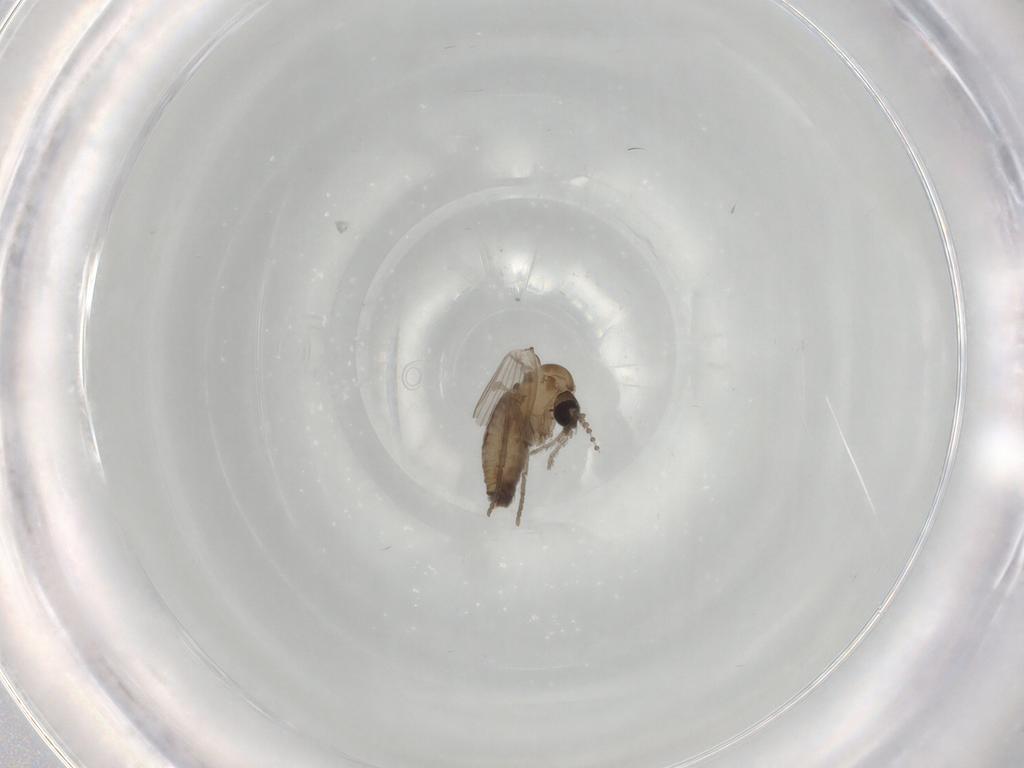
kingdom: Animalia
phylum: Arthropoda
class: Insecta
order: Diptera
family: Psychodidae
